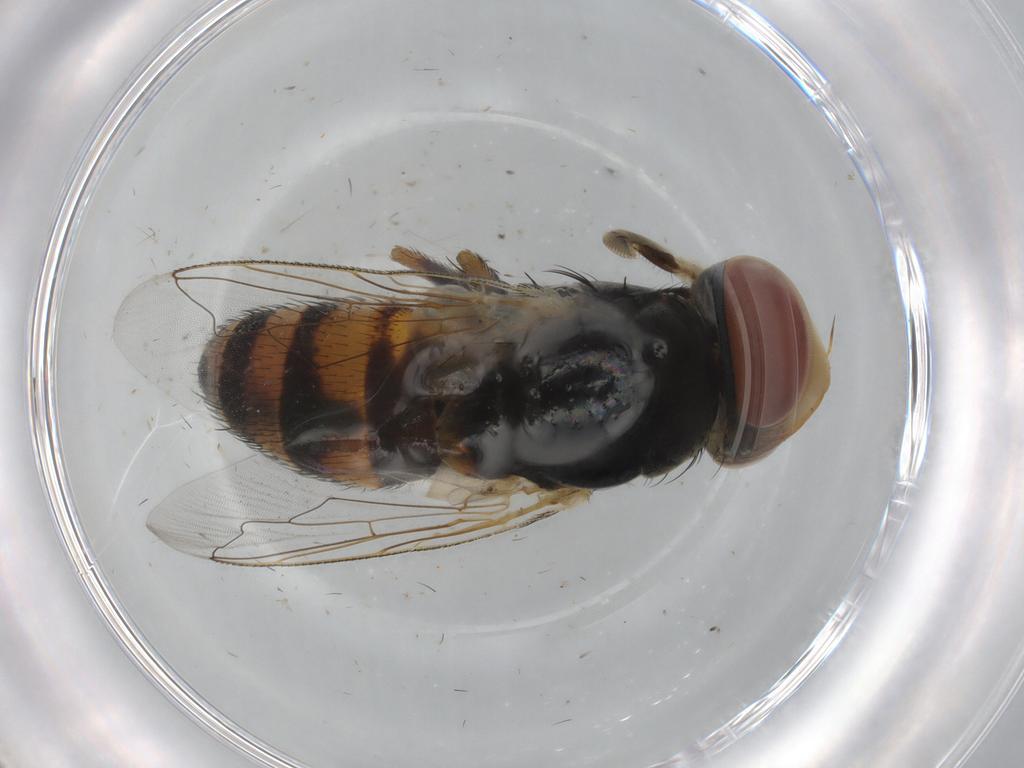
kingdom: Animalia
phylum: Arthropoda
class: Insecta
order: Diptera
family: Dolichopodidae
